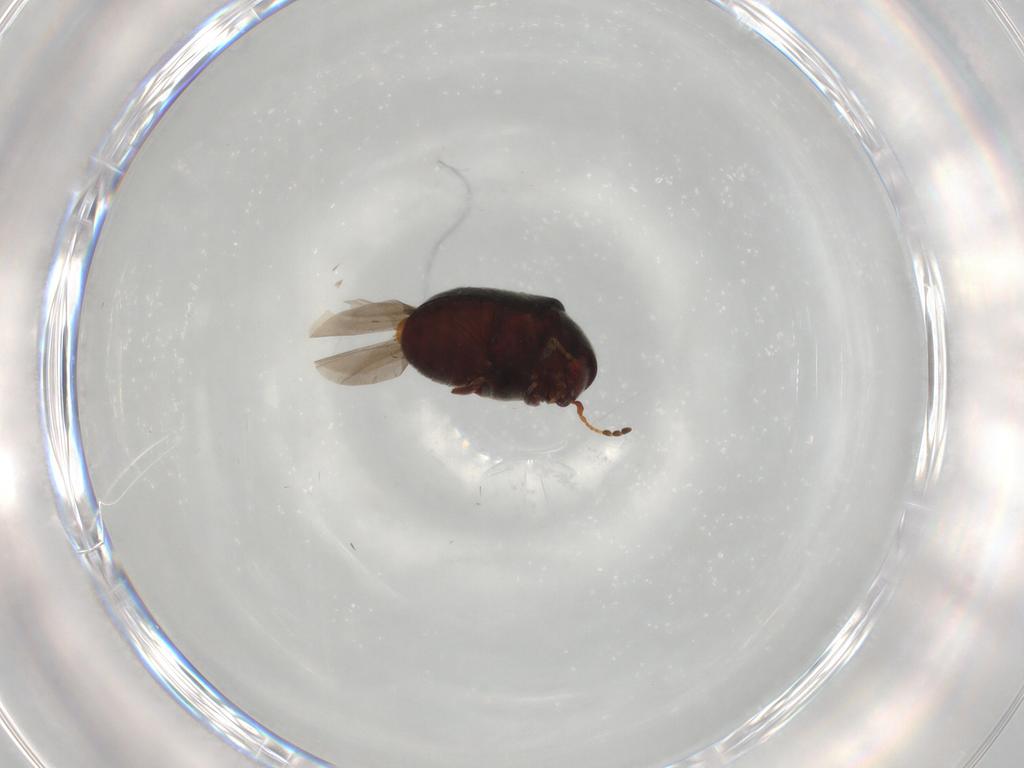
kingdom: Animalia
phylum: Arthropoda
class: Insecta
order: Coleoptera
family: Ptinidae
